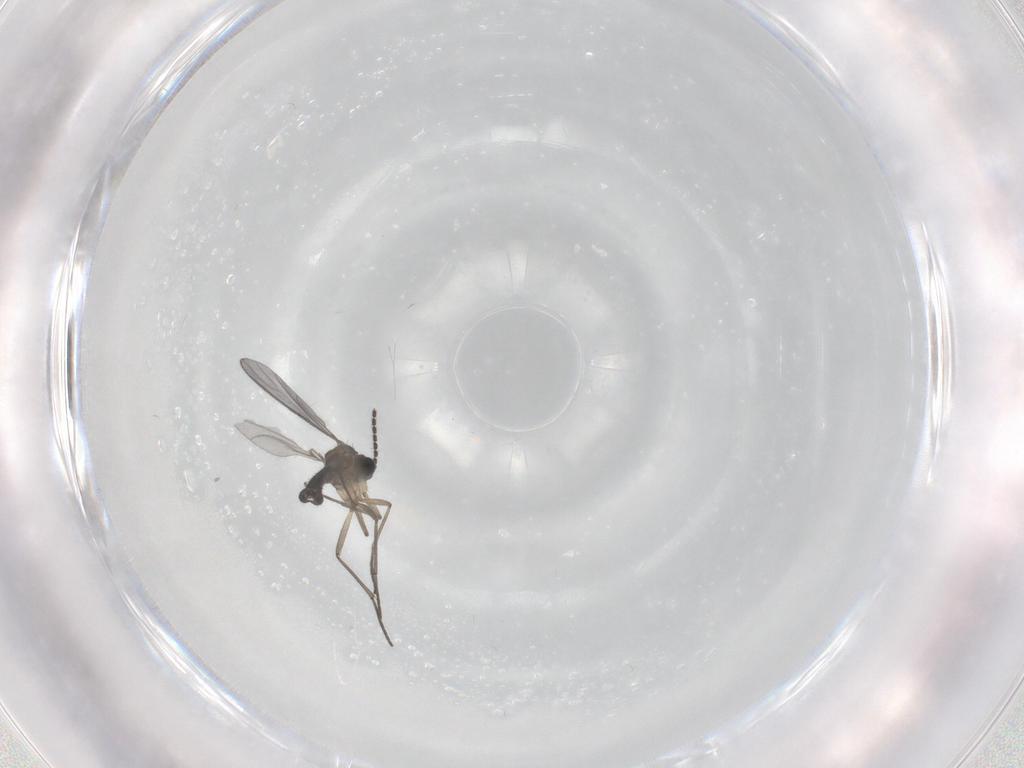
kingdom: Animalia
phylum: Arthropoda
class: Insecta
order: Diptera
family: Sciaridae
